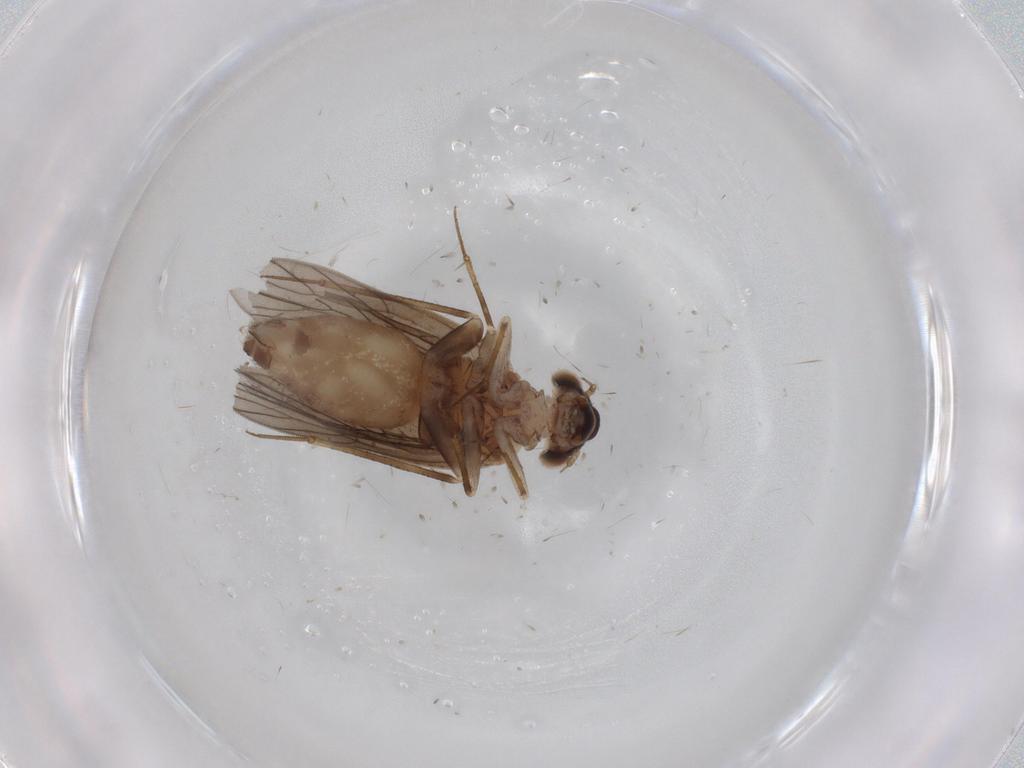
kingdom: Animalia
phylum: Arthropoda
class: Insecta
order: Psocodea
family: Lepidopsocidae
